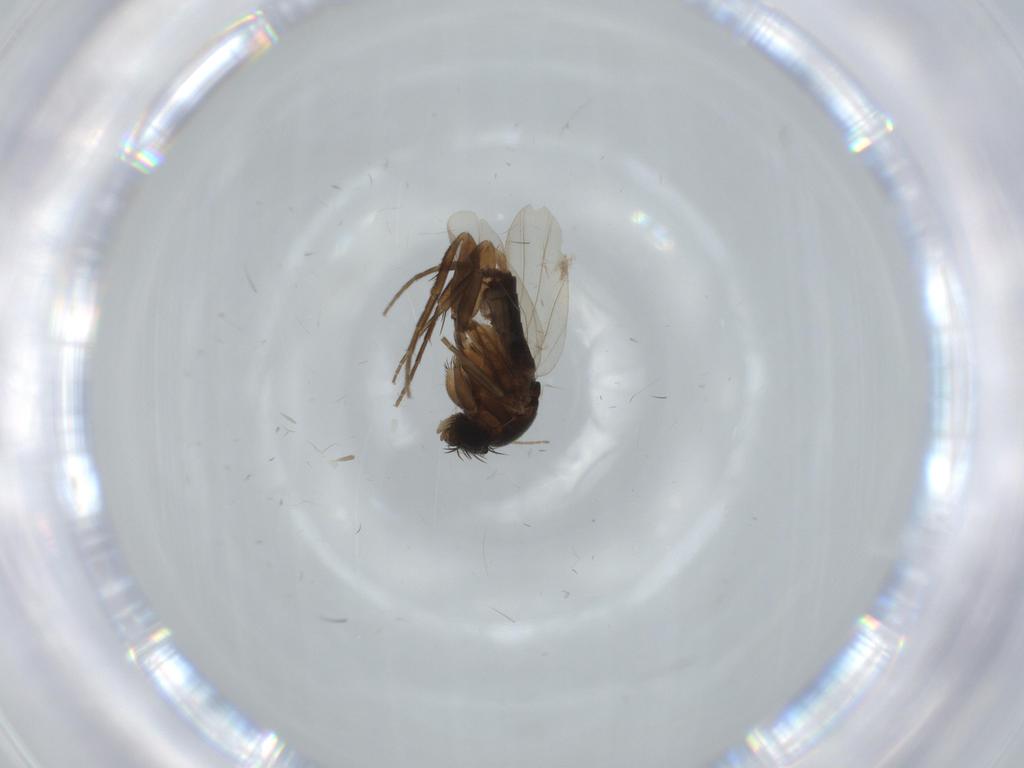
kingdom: Animalia
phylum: Arthropoda
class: Insecta
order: Diptera
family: Phoridae
